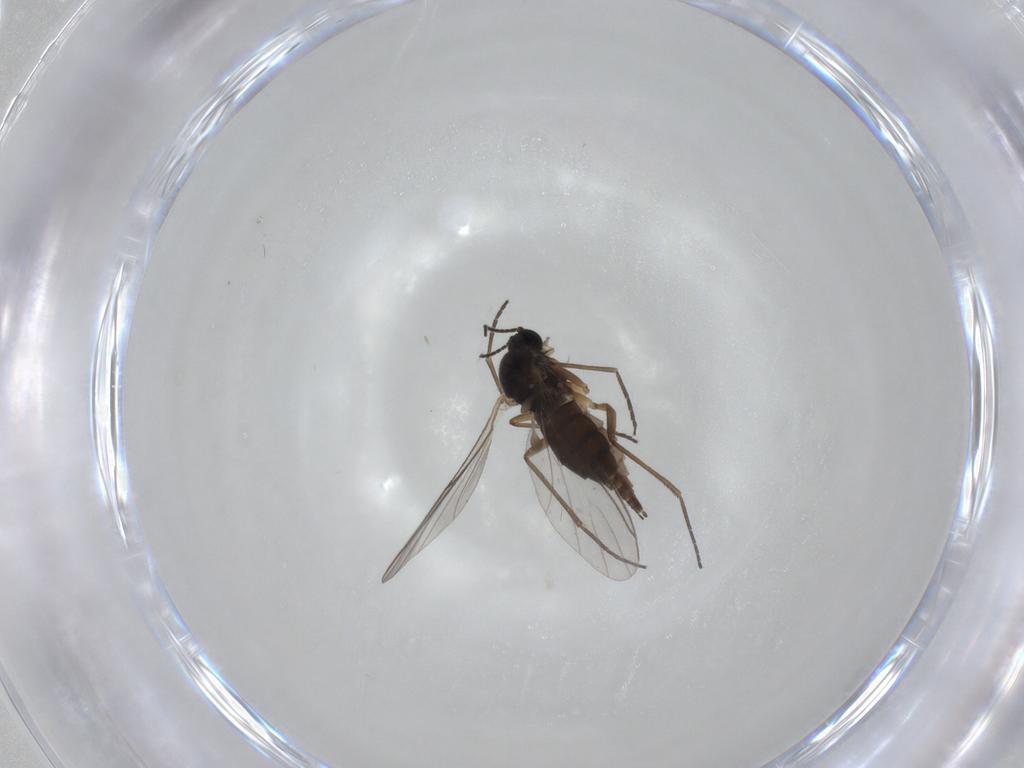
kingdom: Animalia
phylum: Arthropoda
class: Insecta
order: Diptera
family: Sciaridae
